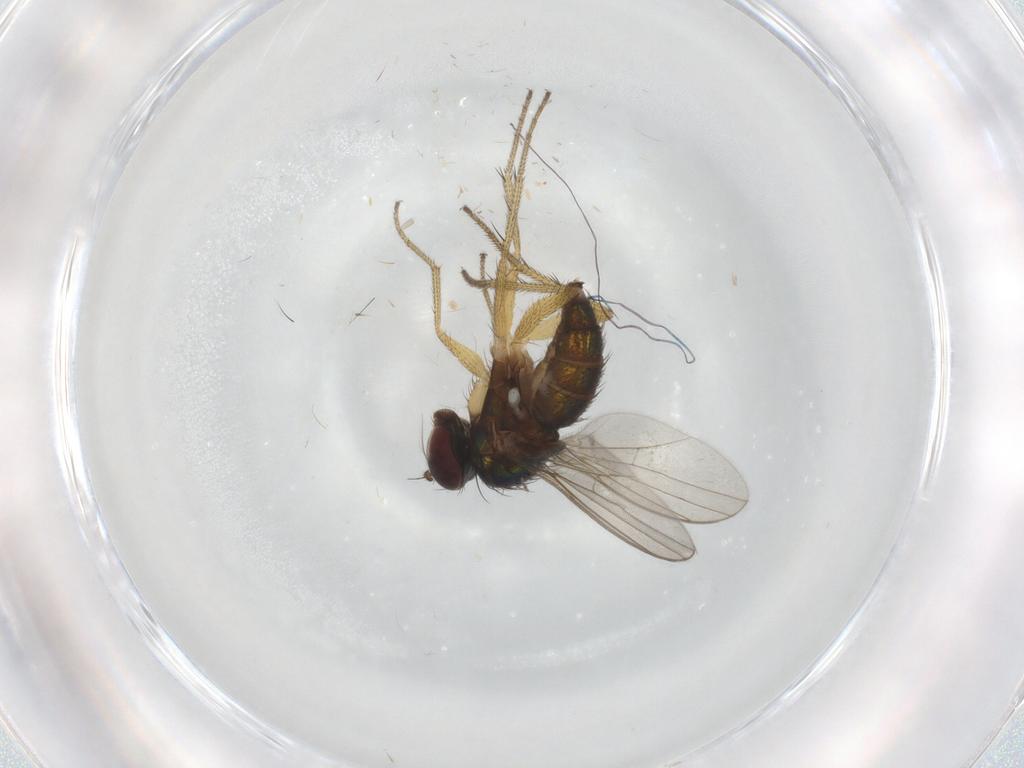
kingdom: Animalia
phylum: Arthropoda
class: Insecta
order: Diptera
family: Dolichopodidae
